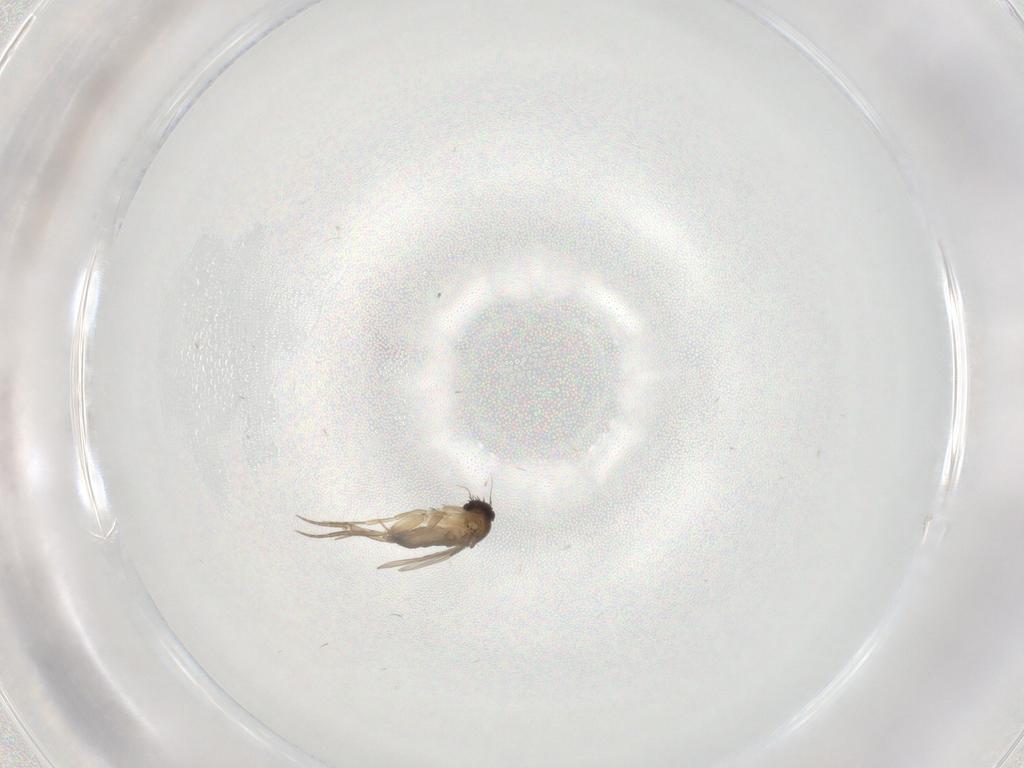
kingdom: Animalia
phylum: Arthropoda
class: Insecta
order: Diptera
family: Phoridae
